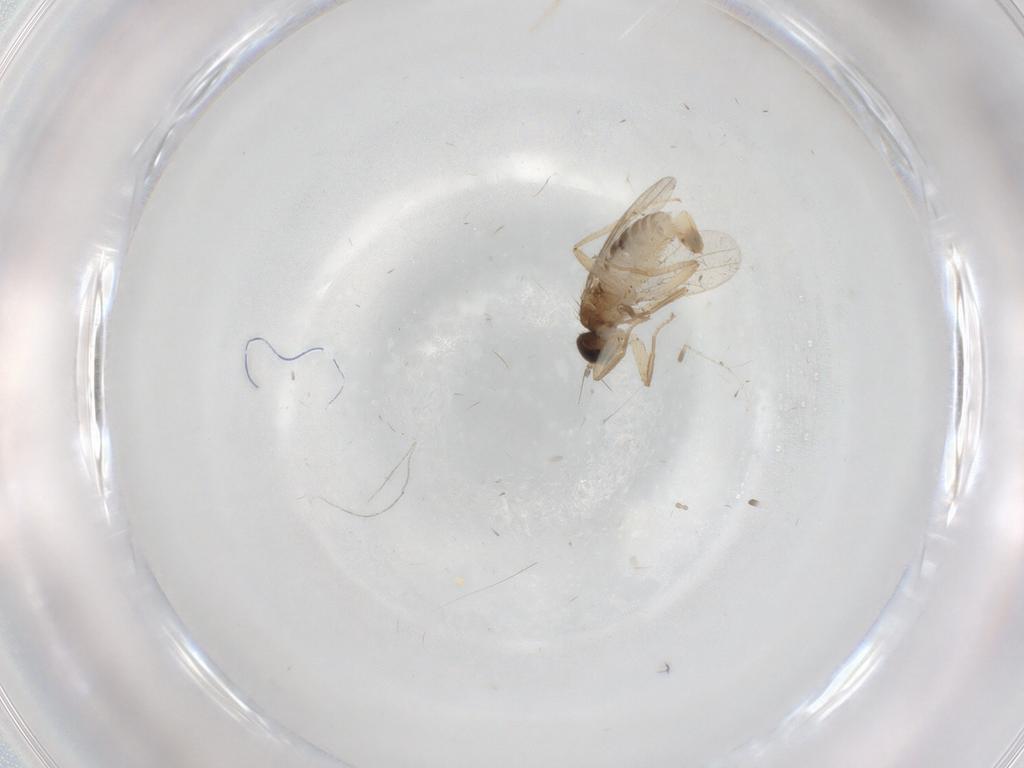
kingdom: Animalia
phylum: Arthropoda
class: Insecta
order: Diptera
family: Hybotidae
